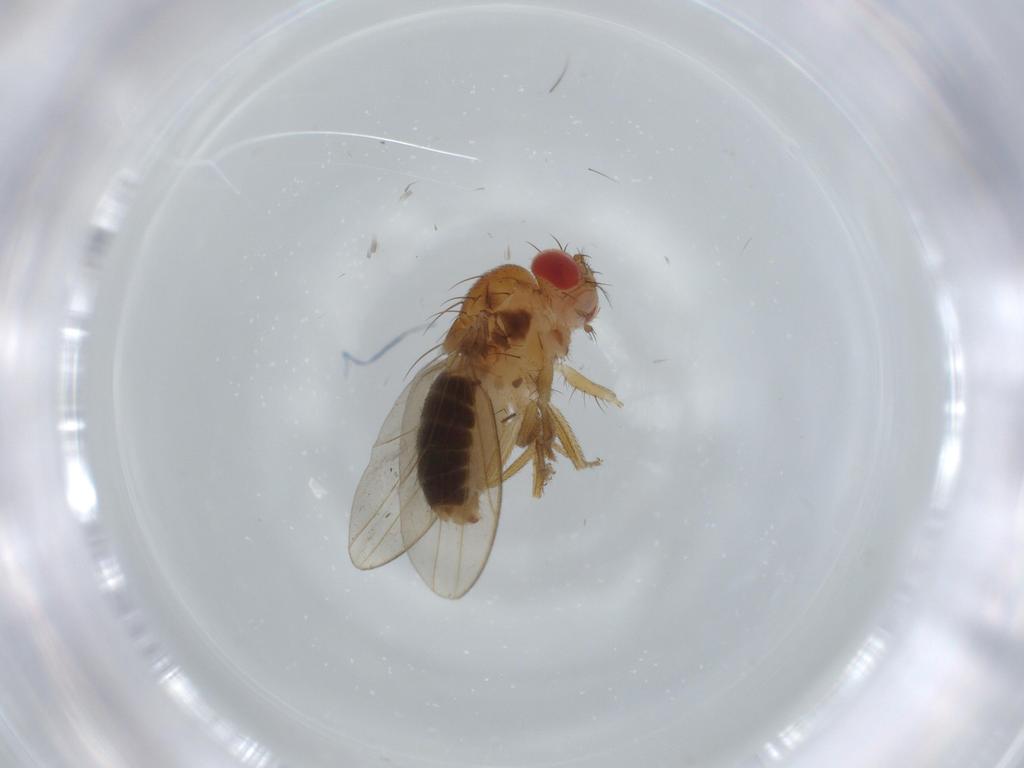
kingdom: Animalia
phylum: Arthropoda
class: Insecta
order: Diptera
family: Drosophilidae
